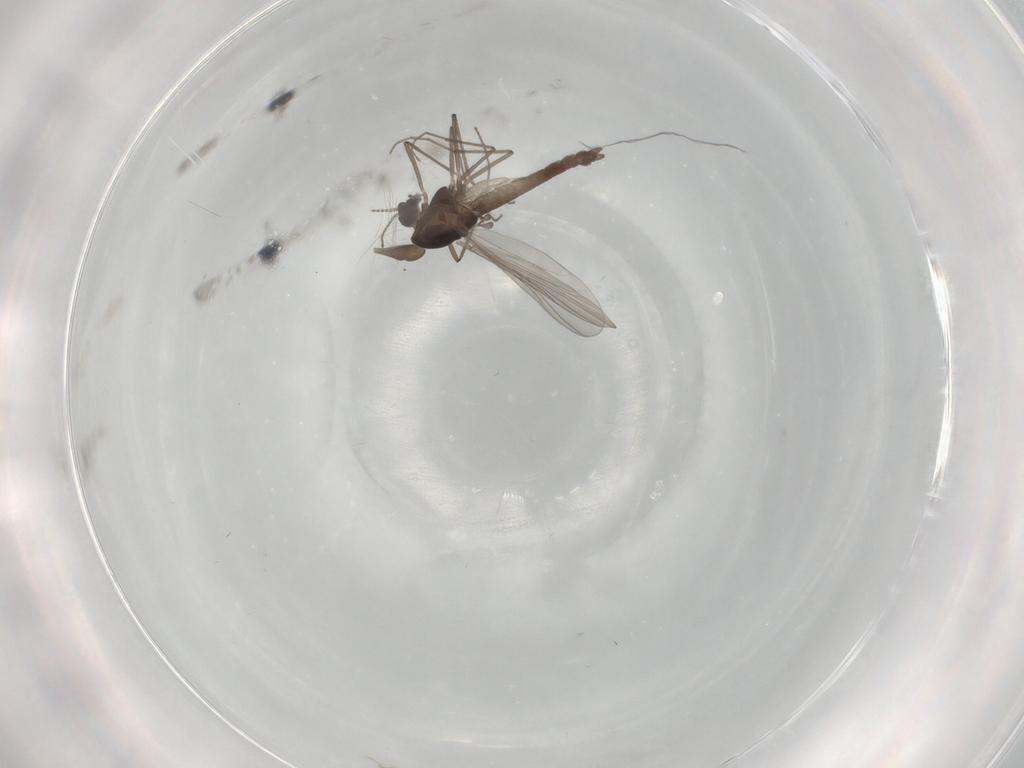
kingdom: Animalia
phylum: Arthropoda
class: Insecta
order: Diptera
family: Chironomidae
